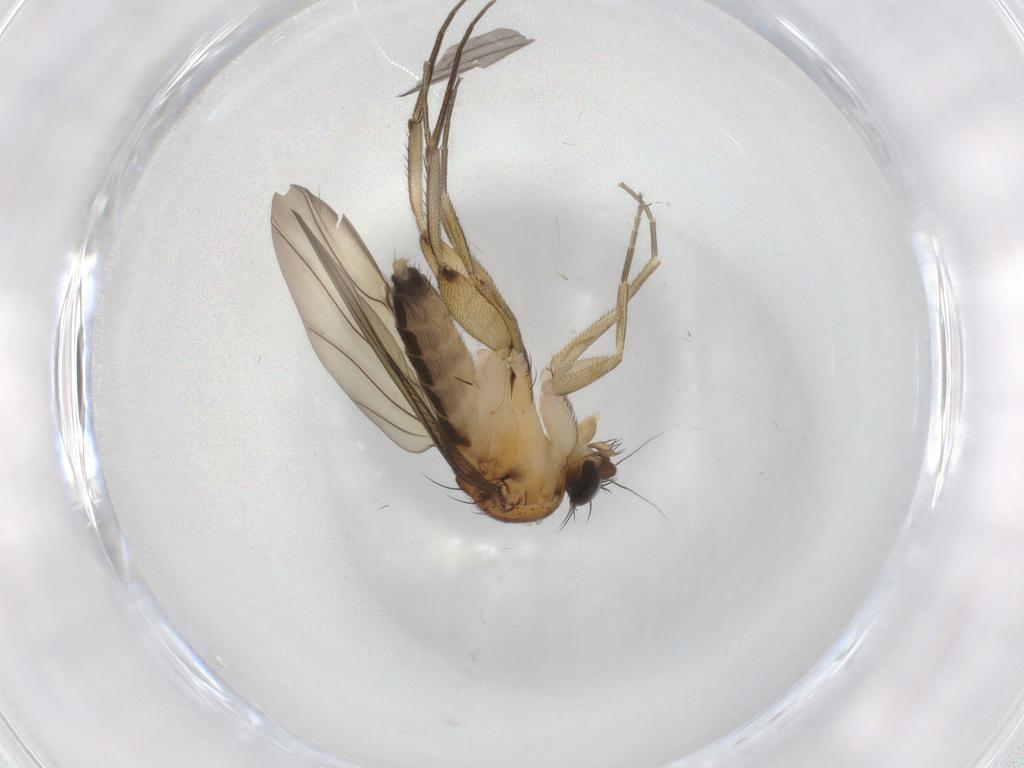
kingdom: Animalia
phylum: Arthropoda
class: Insecta
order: Diptera
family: Phoridae
